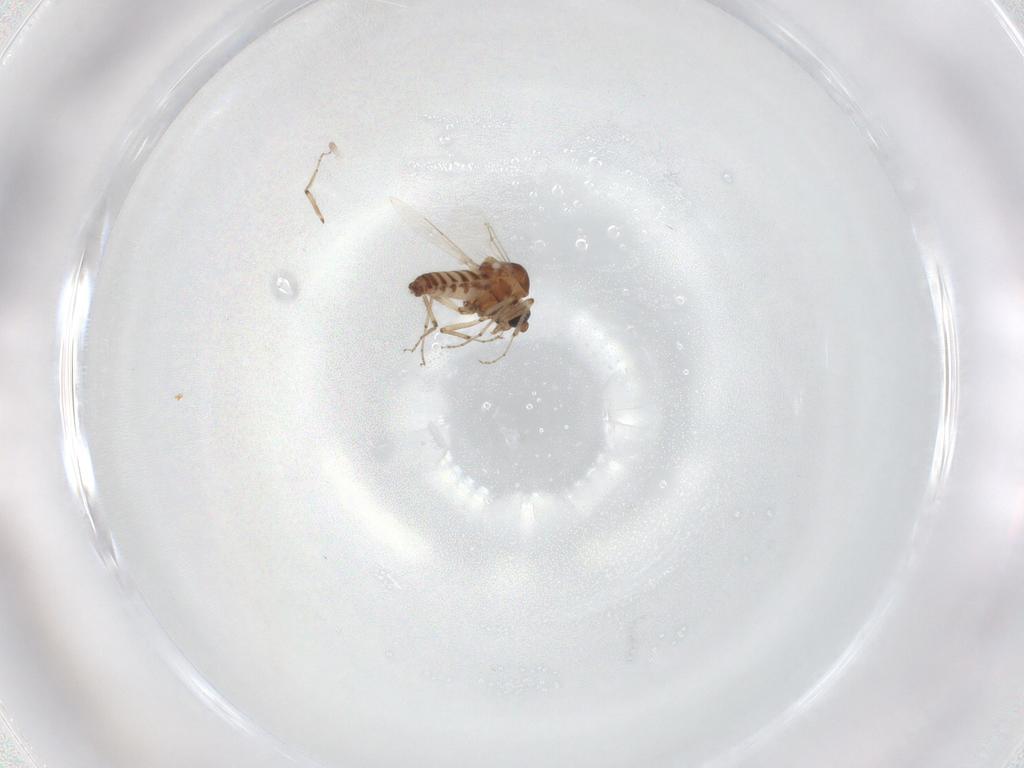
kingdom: Animalia
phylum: Arthropoda
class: Insecta
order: Diptera
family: Ceratopogonidae
